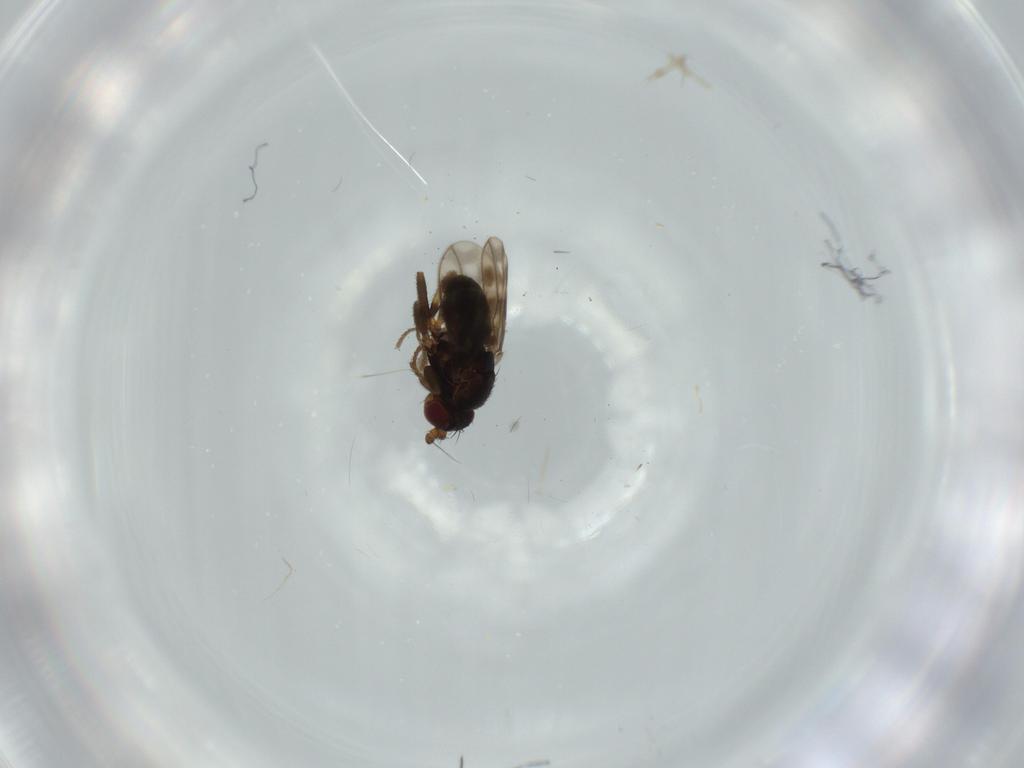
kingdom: Animalia
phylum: Arthropoda
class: Insecta
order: Diptera
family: Sphaeroceridae
